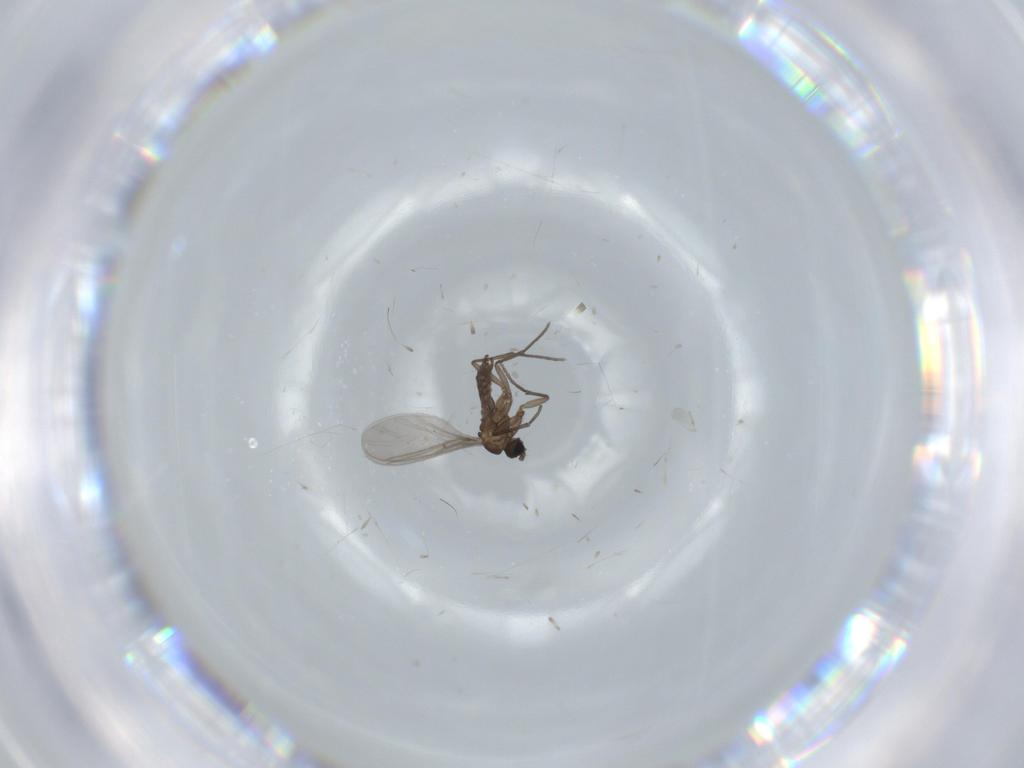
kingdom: Animalia
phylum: Arthropoda
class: Insecta
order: Diptera
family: Sciaridae
